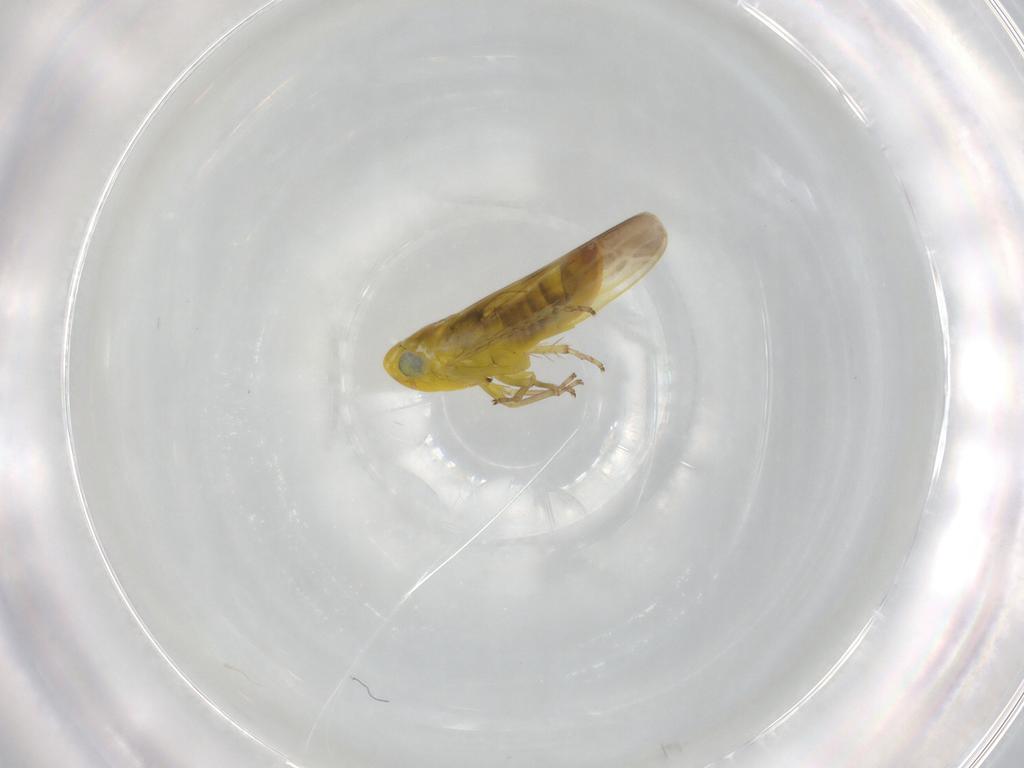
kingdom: Animalia
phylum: Arthropoda
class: Insecta
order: Hemiptera
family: Cicadellidae
